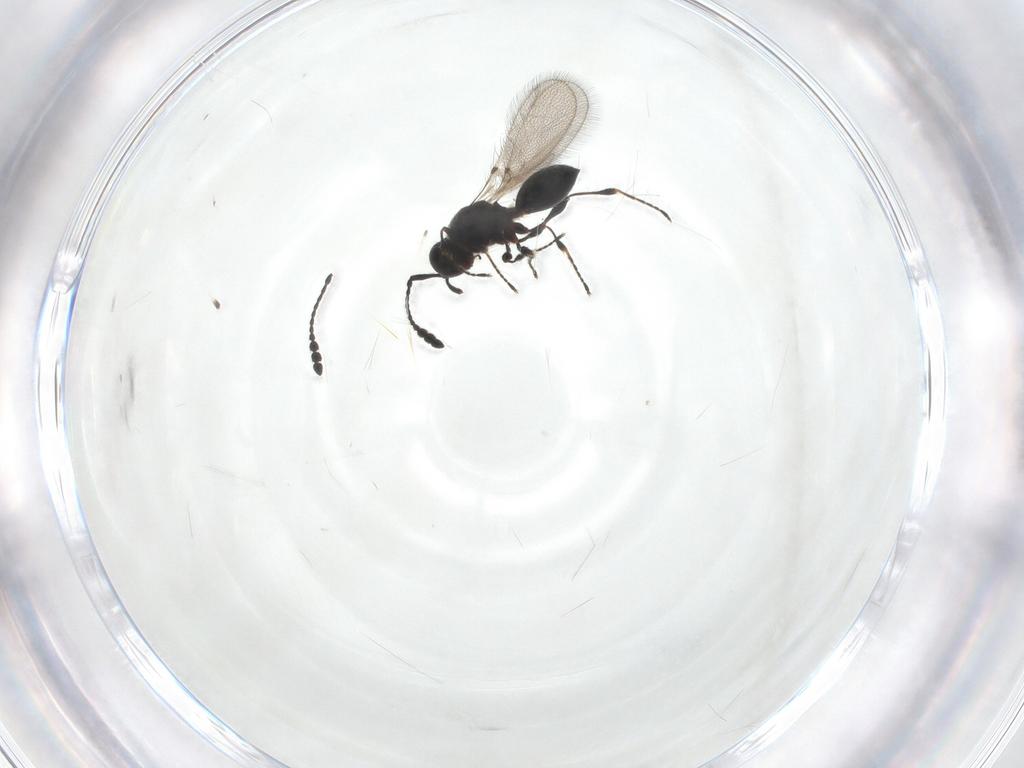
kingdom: Animalia
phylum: Arthropoda
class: Insecta
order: Hymenoptera
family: Diapriidae
